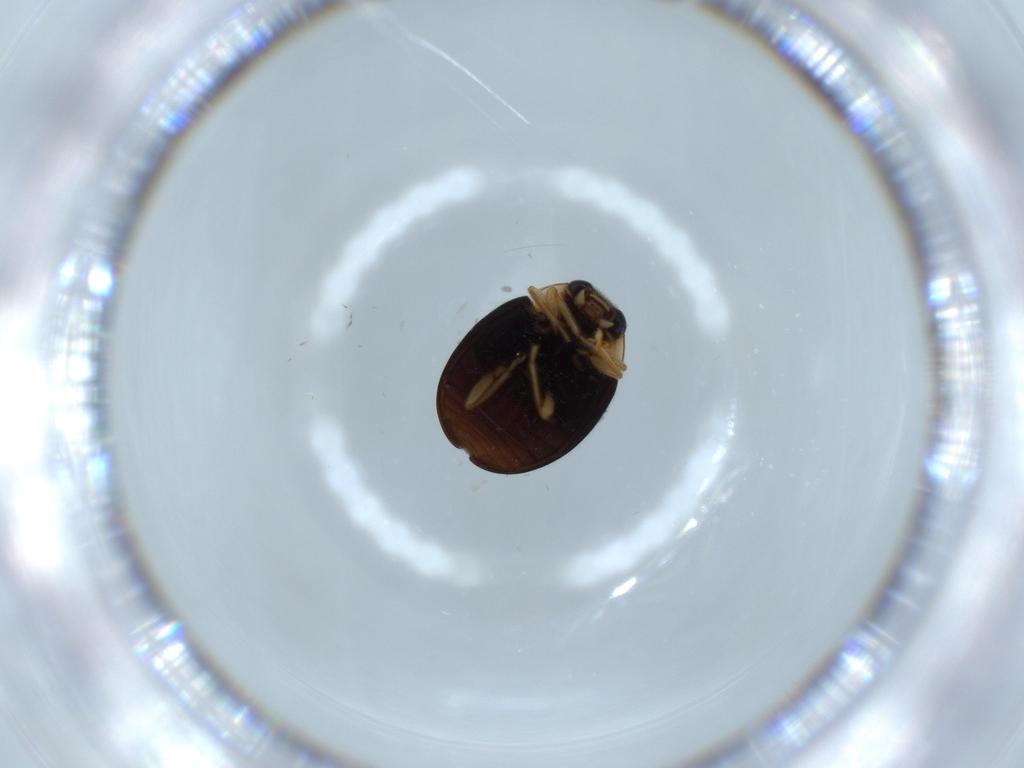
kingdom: Animalia
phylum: Arthropoda
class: Insecta
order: Coleoptera
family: Coccinellidae
